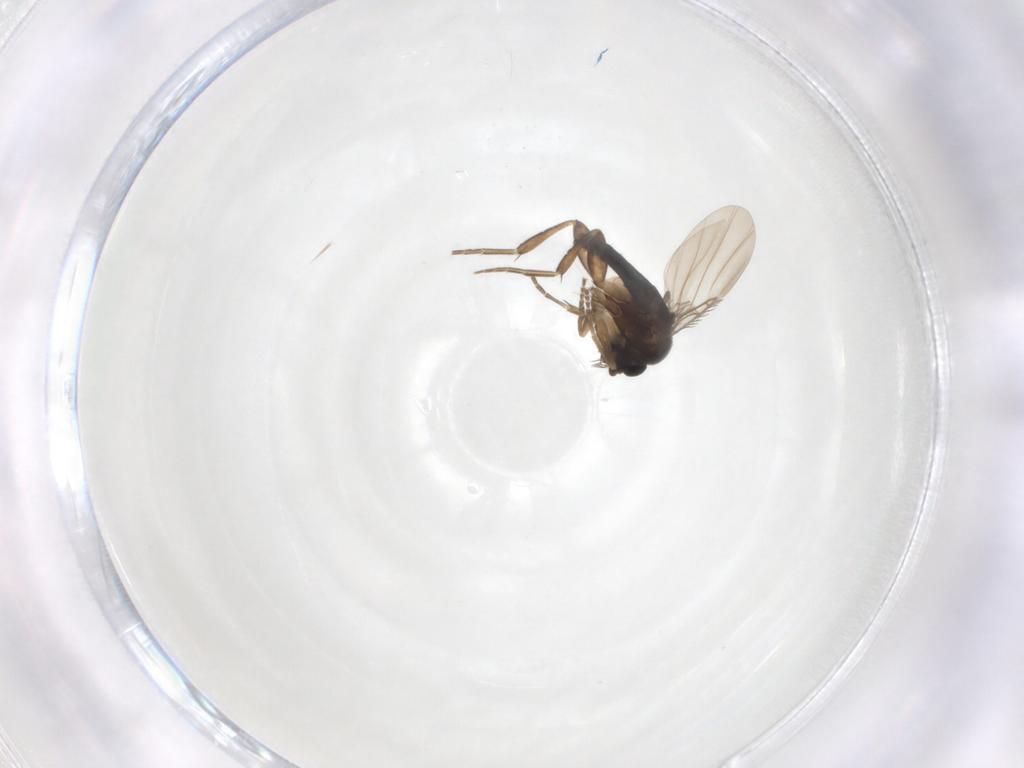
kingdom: Animalia
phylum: Arthropoda
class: Insecta
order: Diptera
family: Phoridae
